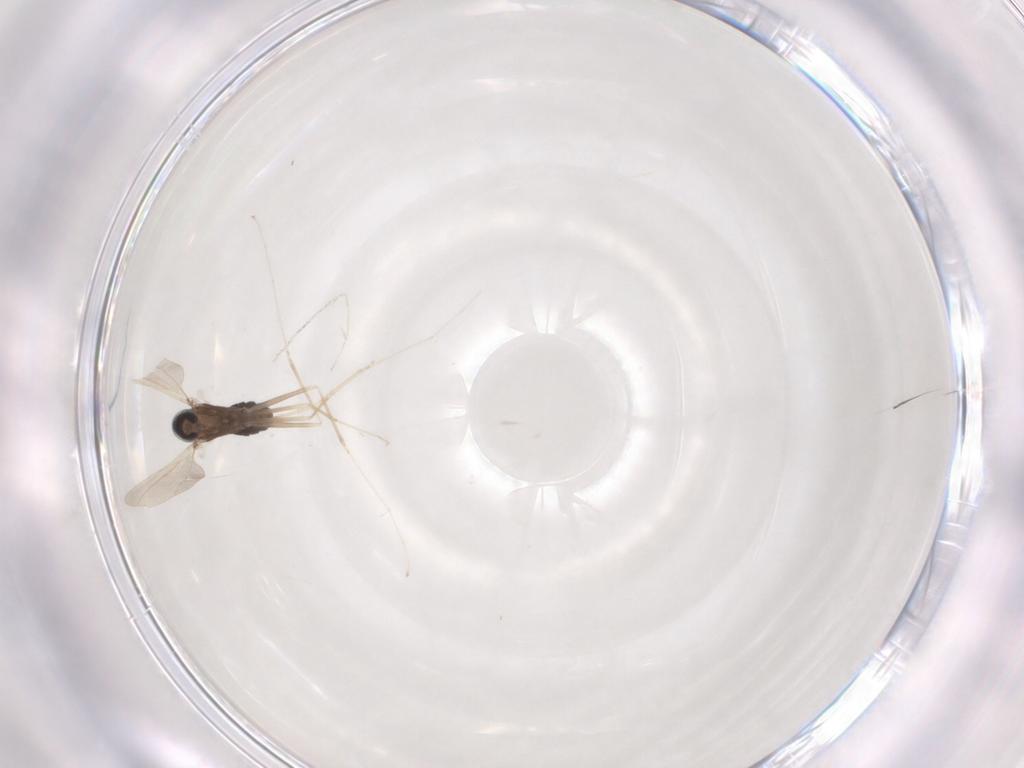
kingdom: Animalia
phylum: Arthropoda
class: Insecta
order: Diptera
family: Cecidomyiidae
